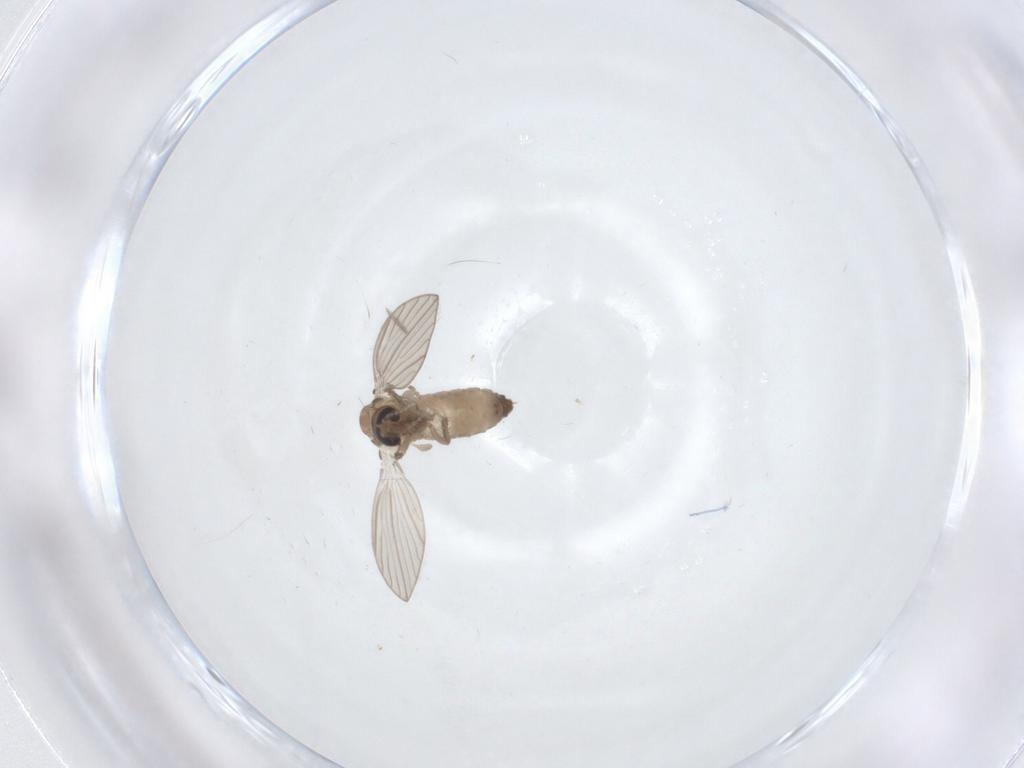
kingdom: Animalia
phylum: Arthropoda
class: Insecta
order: Diptera
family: Psychodidae
